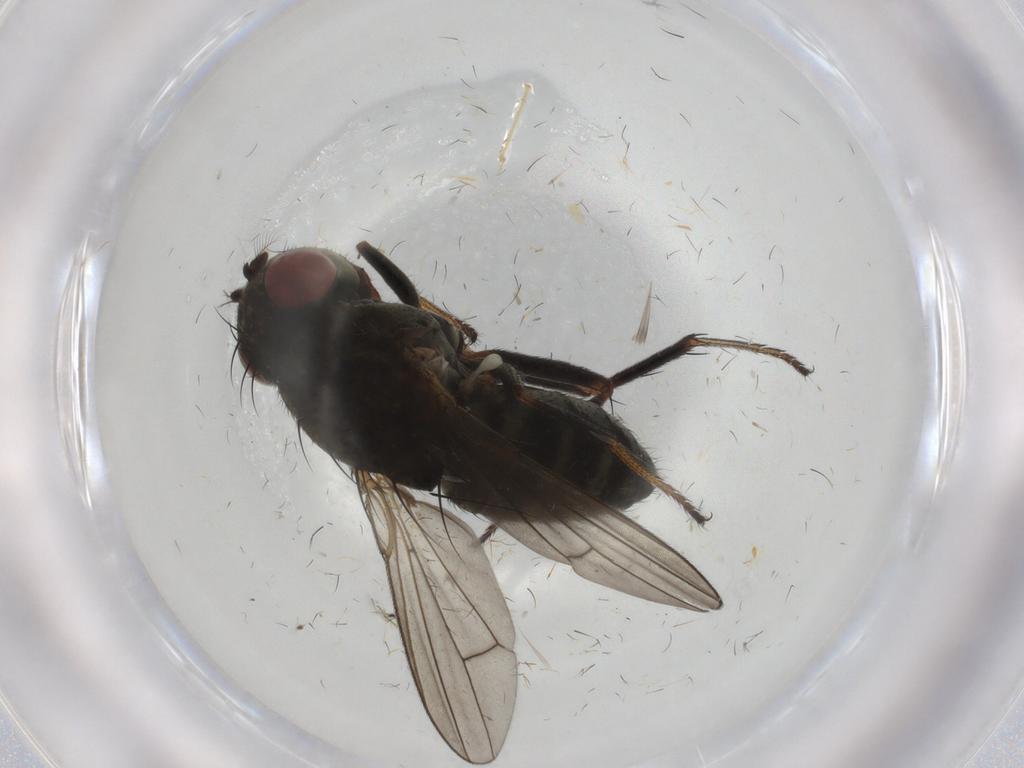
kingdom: Animalia
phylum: Arthropoda
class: Insecta
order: Diptera
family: Ephydridae
